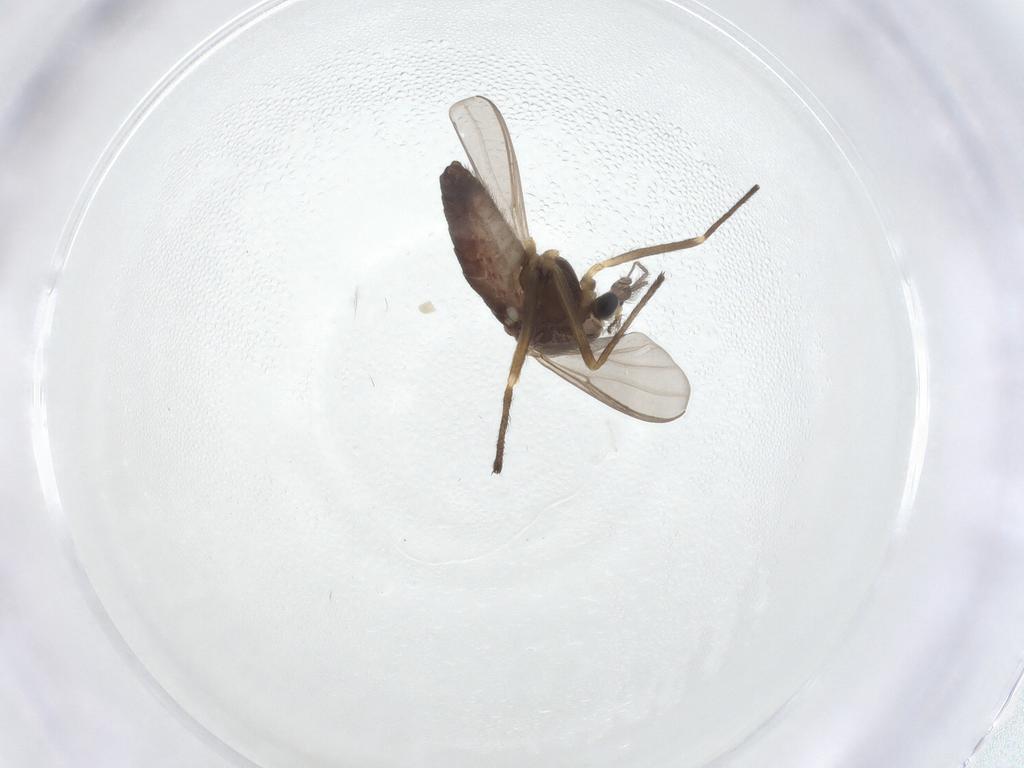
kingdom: Animalia
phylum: Arthropoda
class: Insecta
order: Diptera
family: Chironomidae
